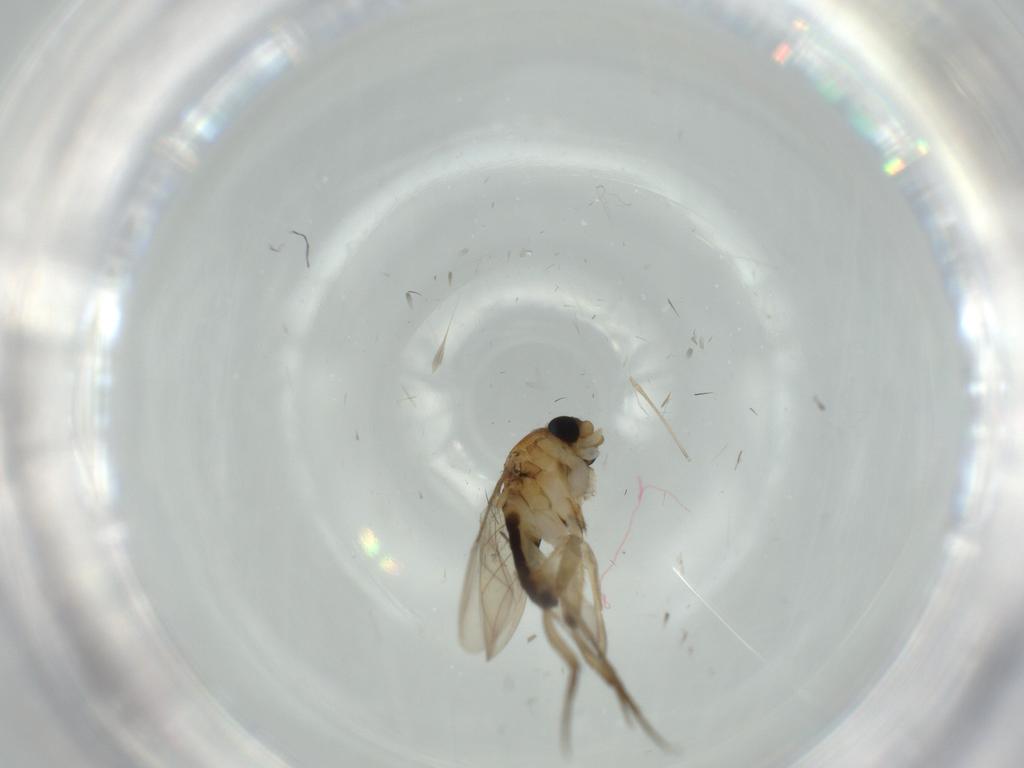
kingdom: Animalia
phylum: Arthropoda
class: Insecta
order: Diptera
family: Phoridae
